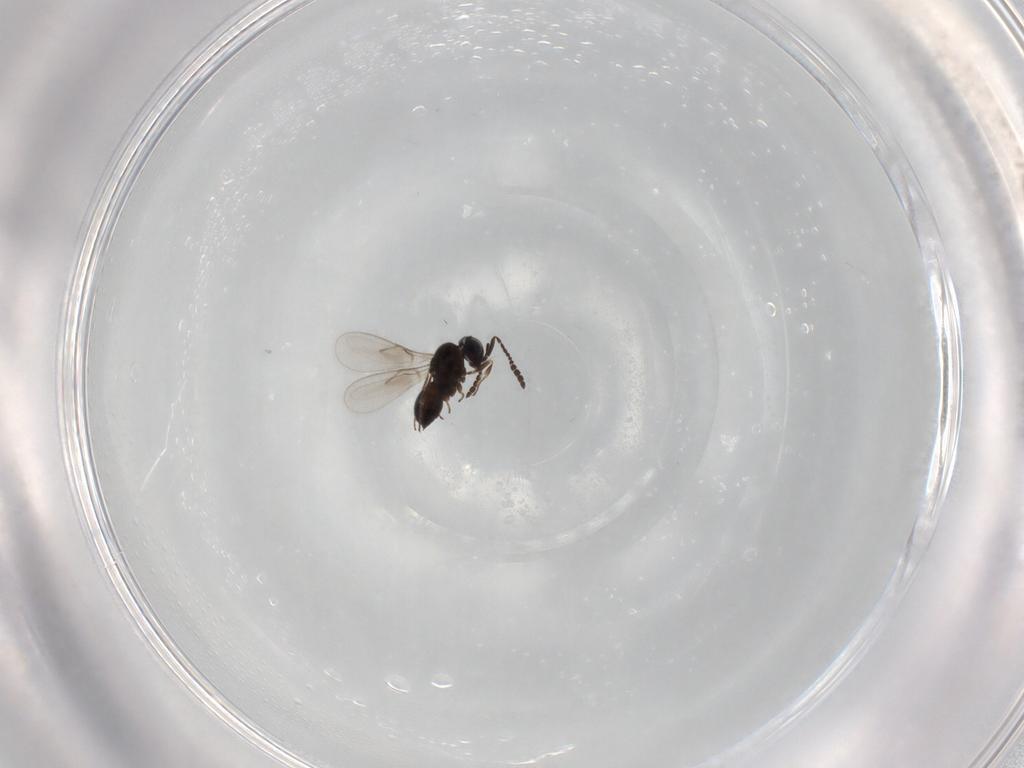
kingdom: Animalia
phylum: Arthropoda
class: Insecta
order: Hymenoptera
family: Scelionidae
